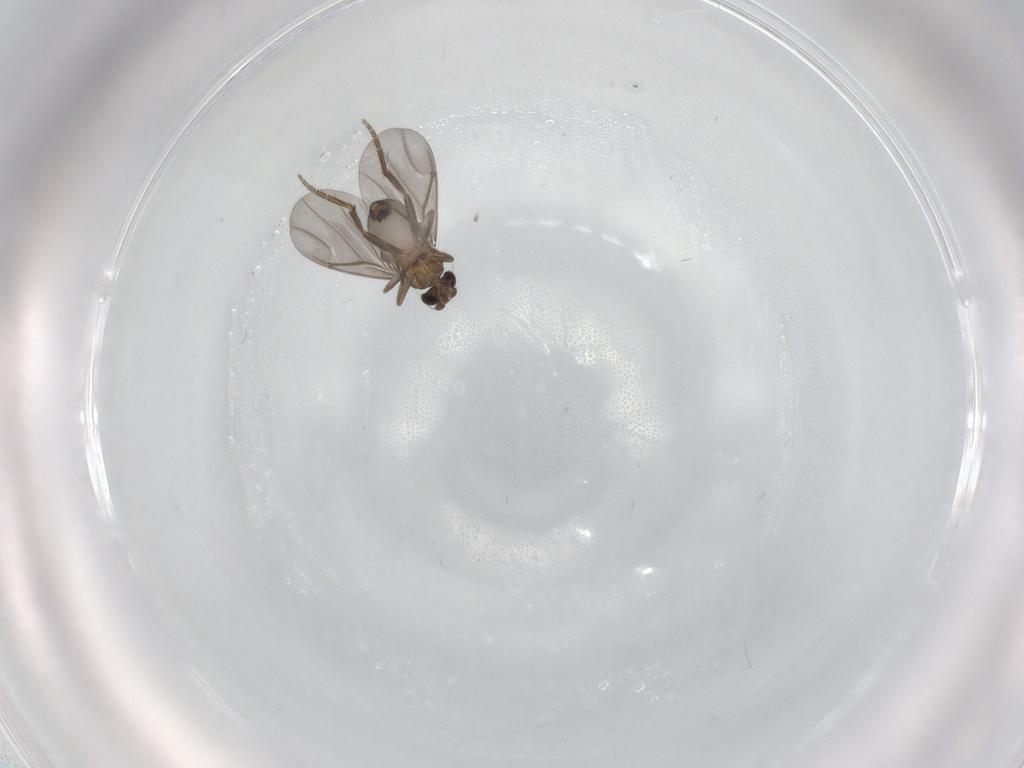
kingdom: Animalia
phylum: Arthropoda
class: Insecta
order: Diptera
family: Phoridae
